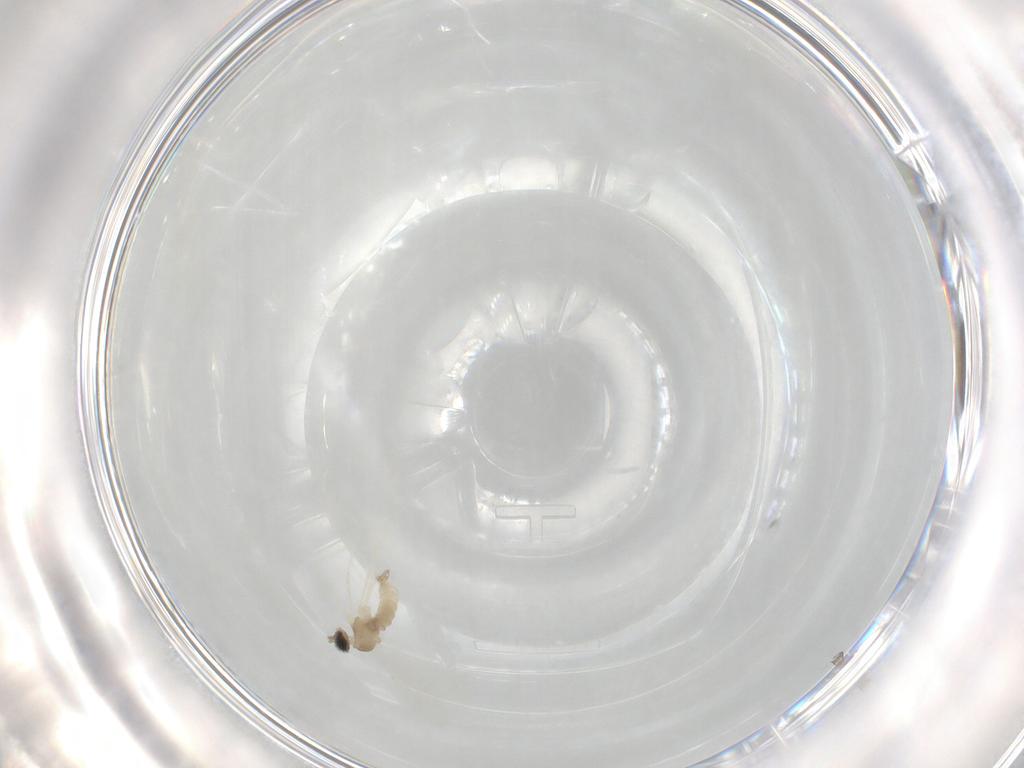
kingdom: Animalia
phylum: Arthropoda
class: Insecta
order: Diptera
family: Cecidomyiidae
